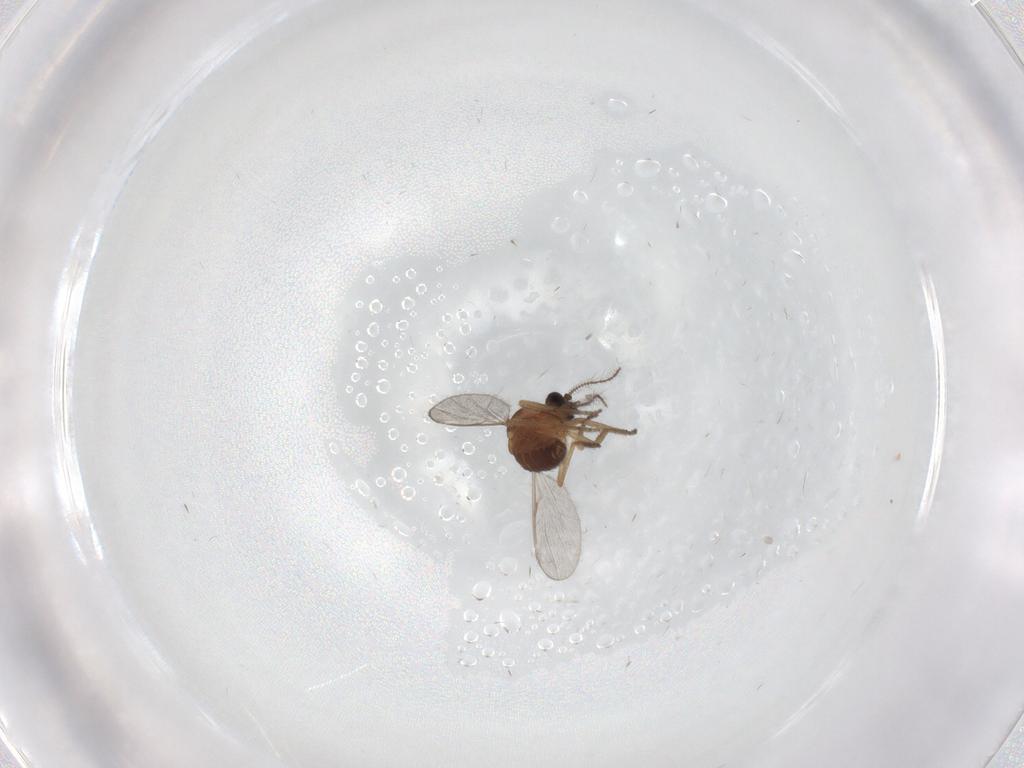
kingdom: Animalia
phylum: Arthropoda
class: Insecta
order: Diptera
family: Ceratopogonidae
